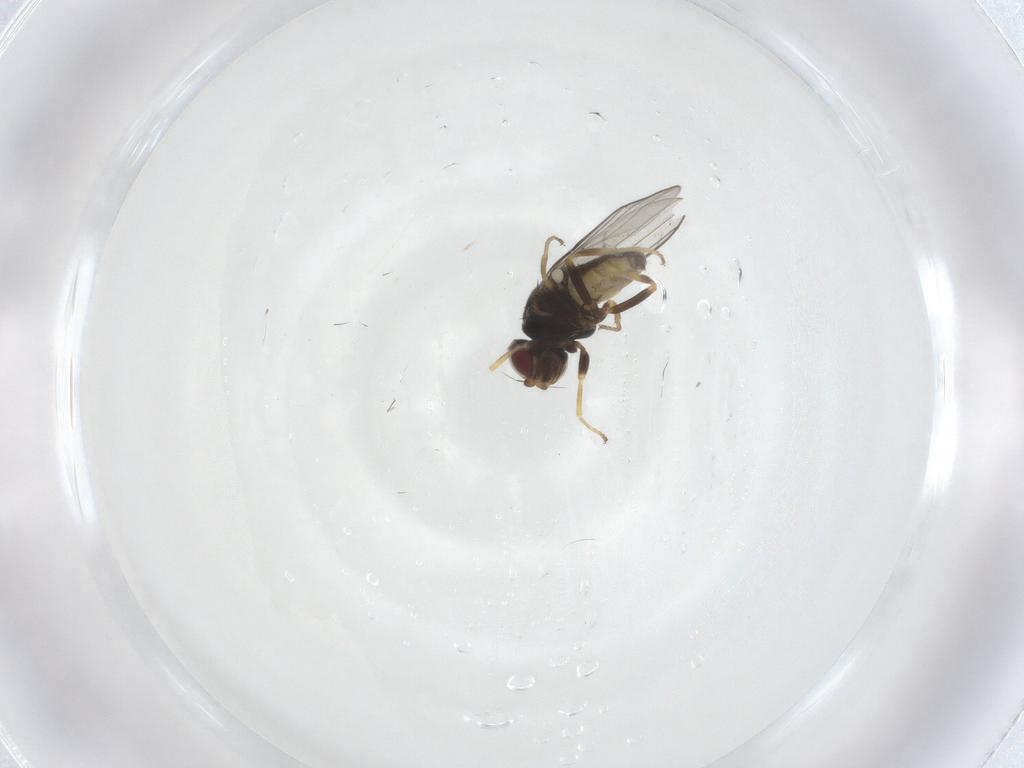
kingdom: Animalia
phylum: Arthropoda
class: Insecta
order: Diptera
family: Chloropidae
